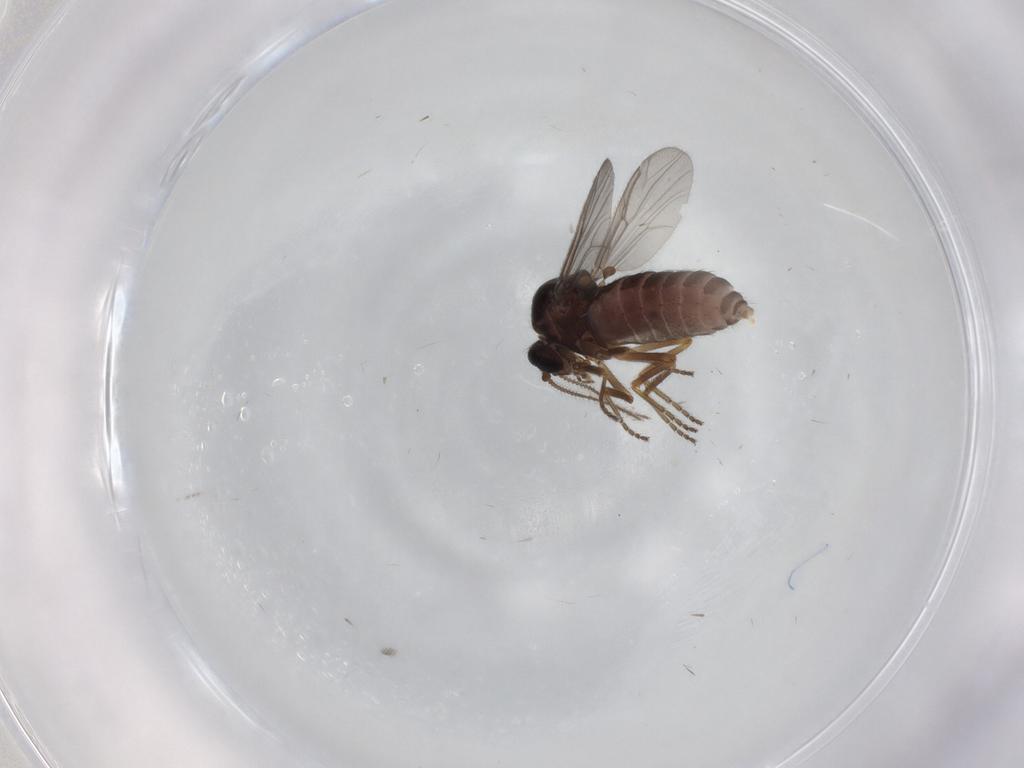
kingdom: Animalia
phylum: Arthropoda
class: Insecta
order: Diptera
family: Ceratopogonidae
